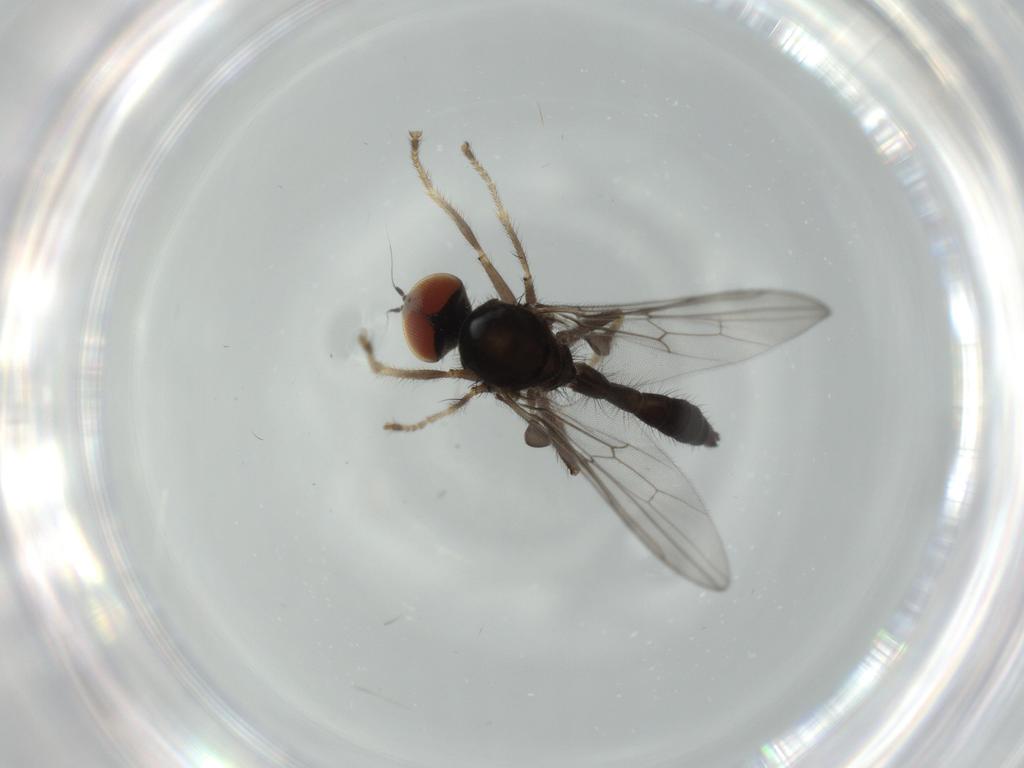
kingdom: Animalia
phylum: Arthropoda
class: Insecta
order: Diptera
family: Hybotidae
